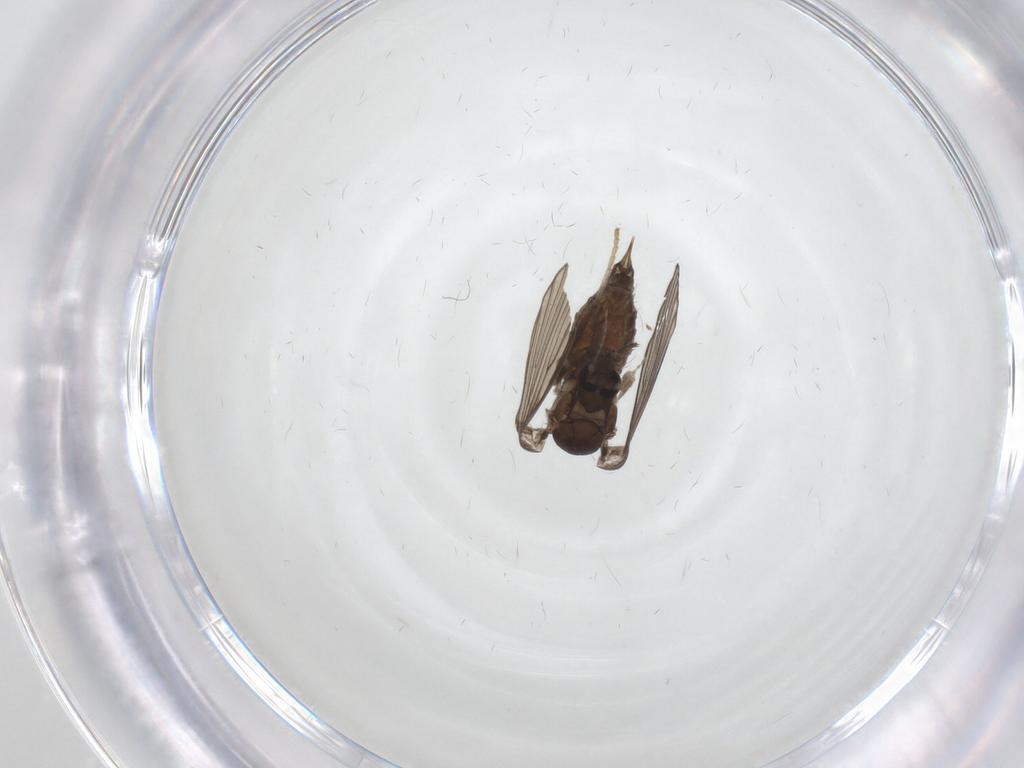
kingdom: Animalia
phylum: Arthropoda
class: Insecta
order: Diptera
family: Psychodidae
